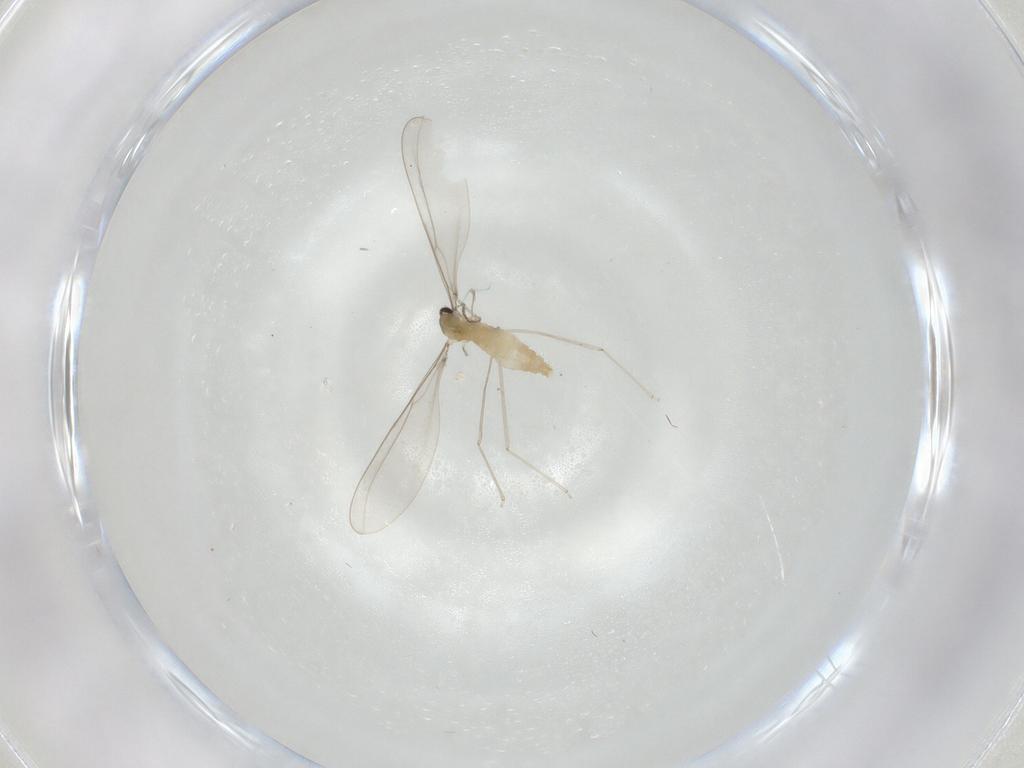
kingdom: Animalia
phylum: Arthropoda
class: Insecta
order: Diptera
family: Cecidomyiidae
